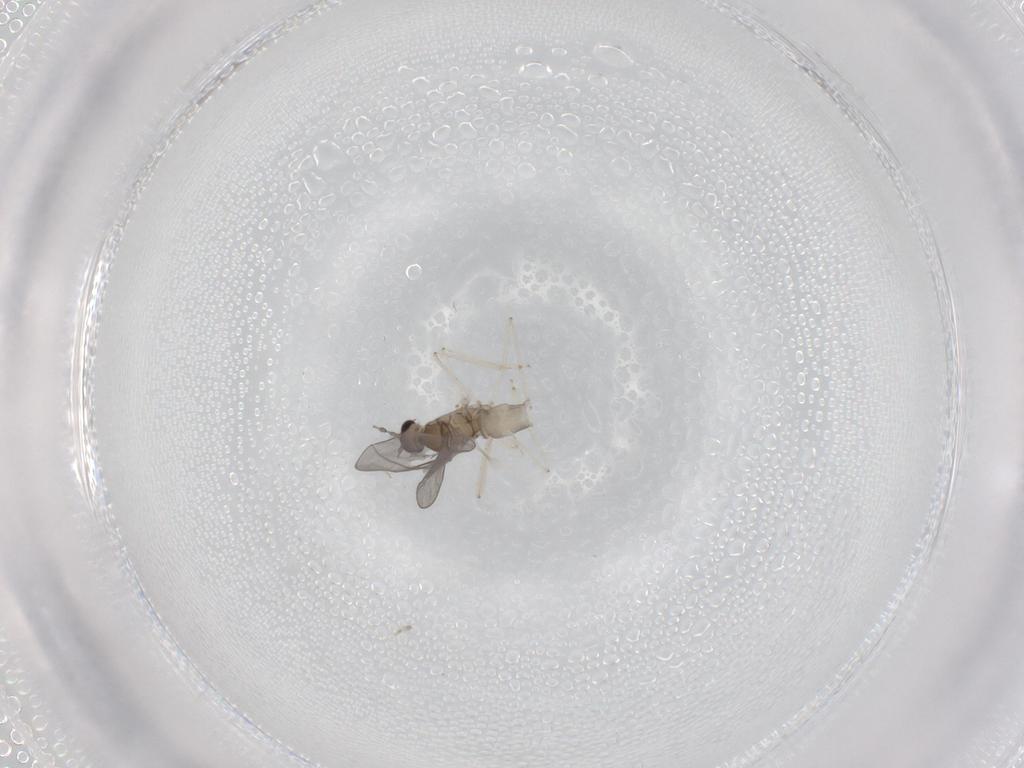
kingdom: Animalia
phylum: Arthropoda
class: Insecta
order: Diptera
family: Cecidomyiidae
